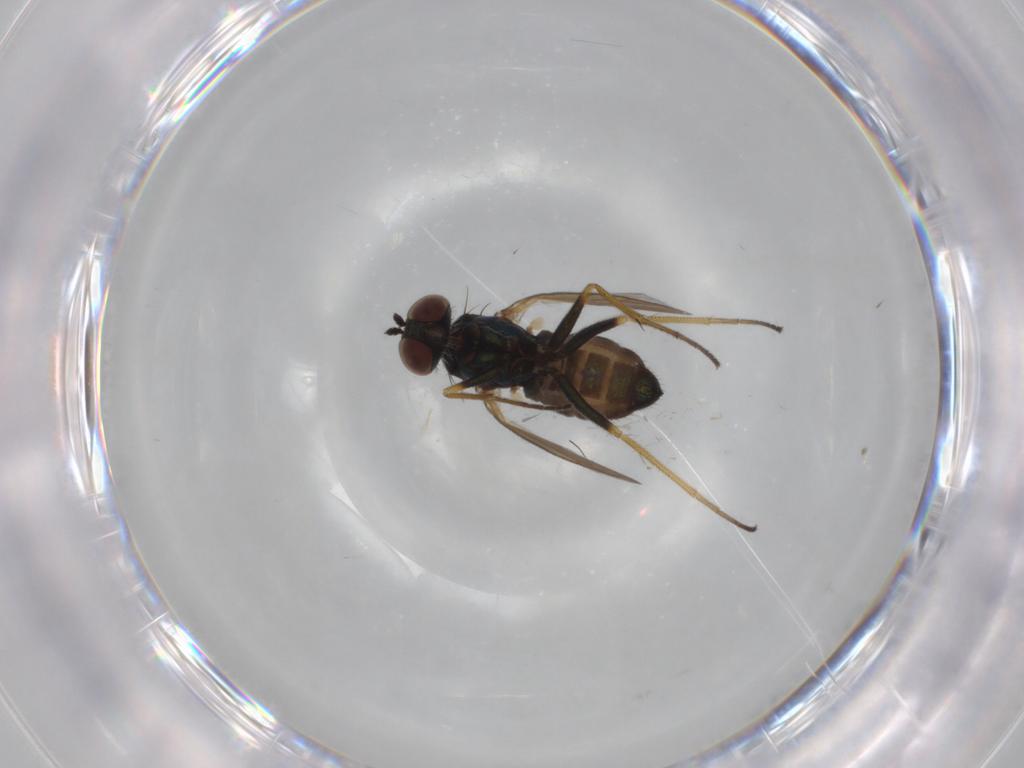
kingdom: Animalia
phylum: Arthropoda
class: Insecta
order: Diptera
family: Dolichopodidae
